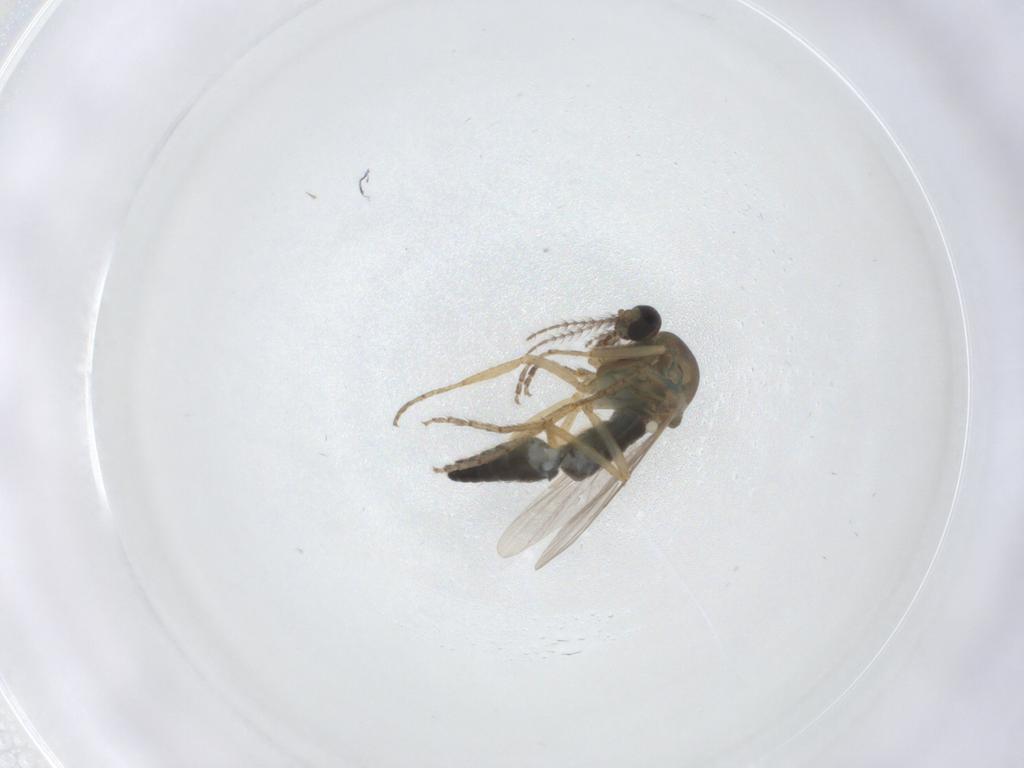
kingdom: Animalia
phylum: Arthropoda
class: Insecta
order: Diptera
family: Ceratopogonidae
